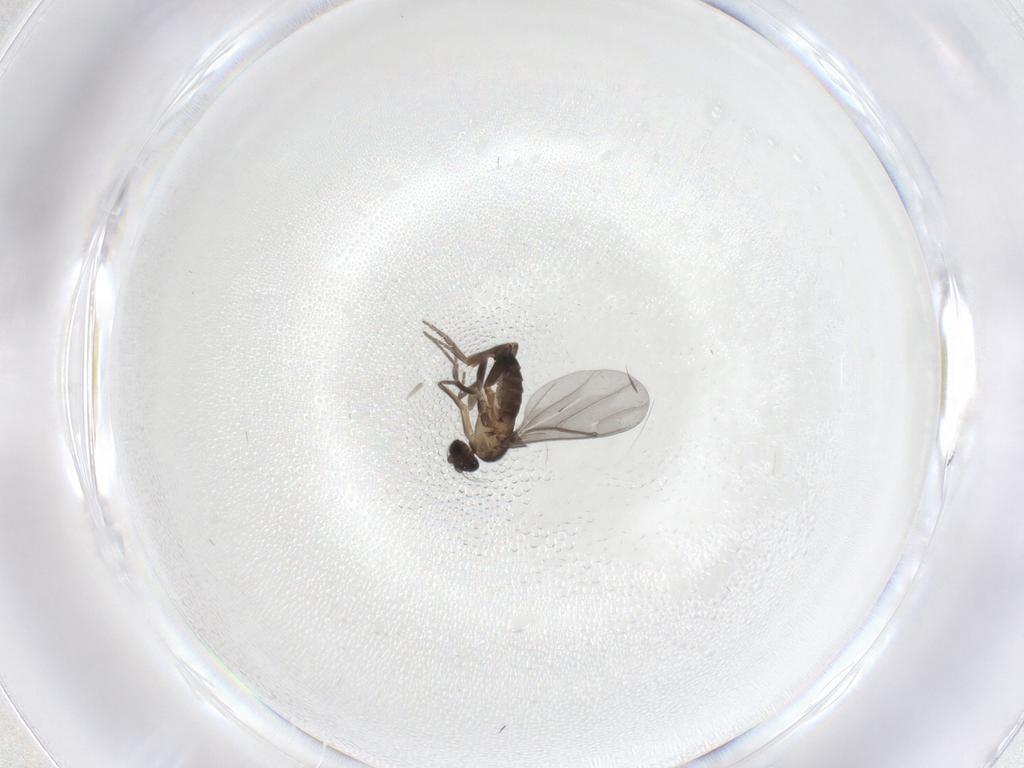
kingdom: Animalia
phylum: Arthropoda
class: Insecta
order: Diptera
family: Phoridae
